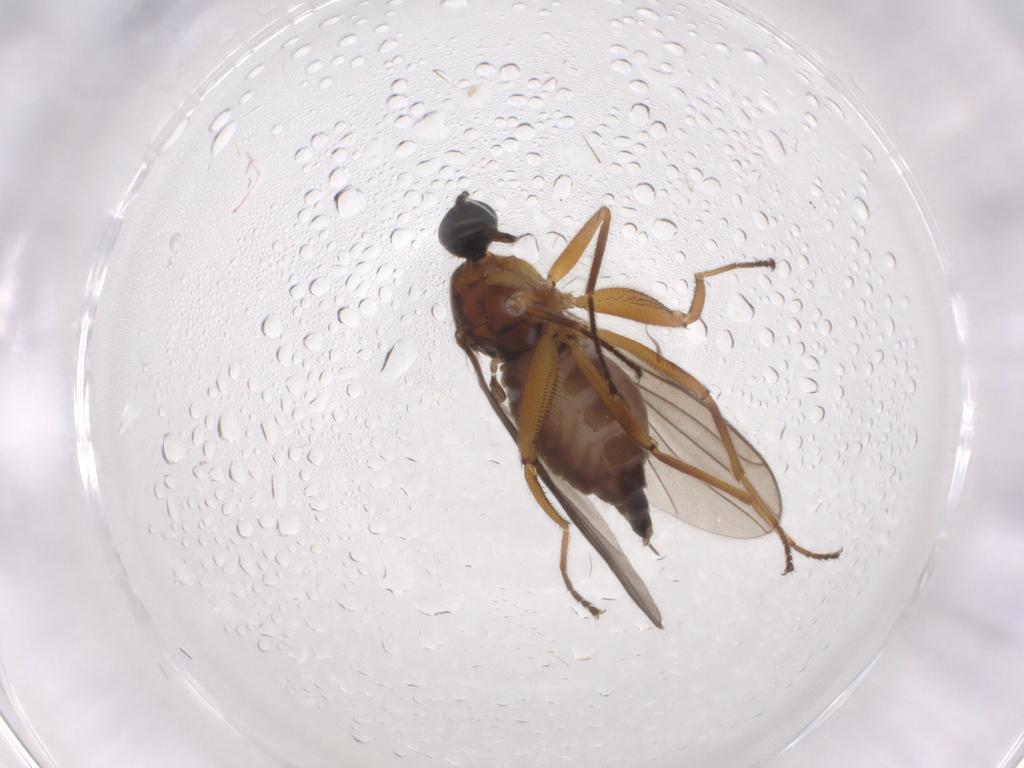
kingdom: Animalia
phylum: Arthropoda
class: Insecta
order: Diptera
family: Hybotidae
